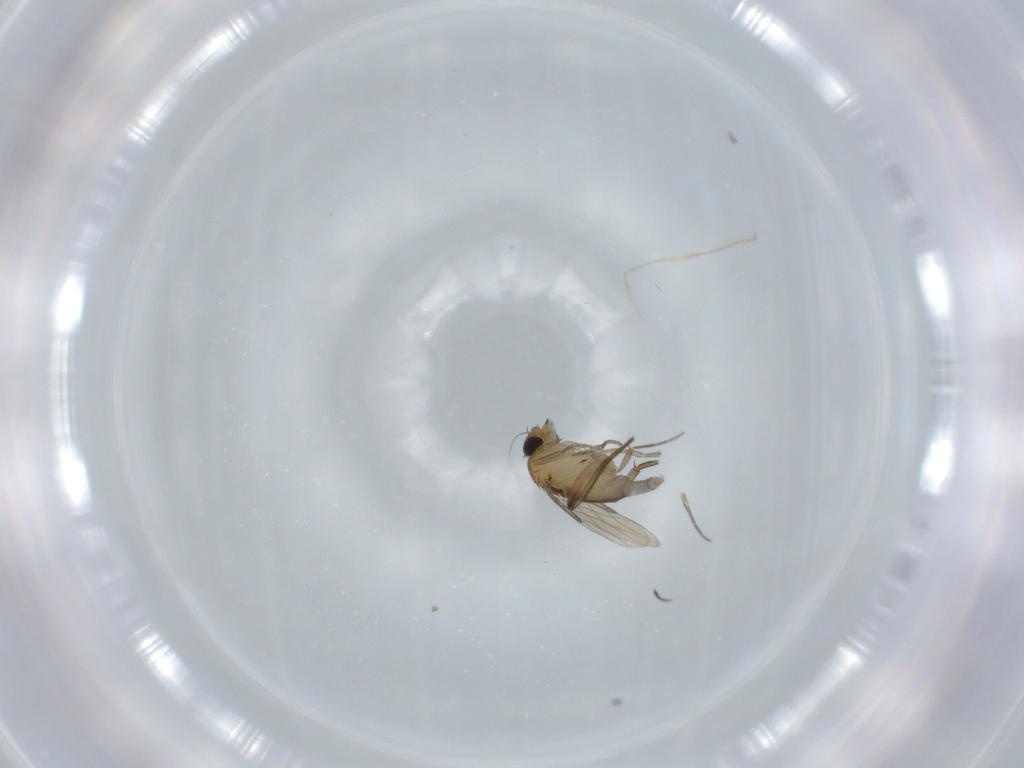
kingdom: Animalia
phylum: Arthropoda
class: Insecta
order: Diptera
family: Phoridae
